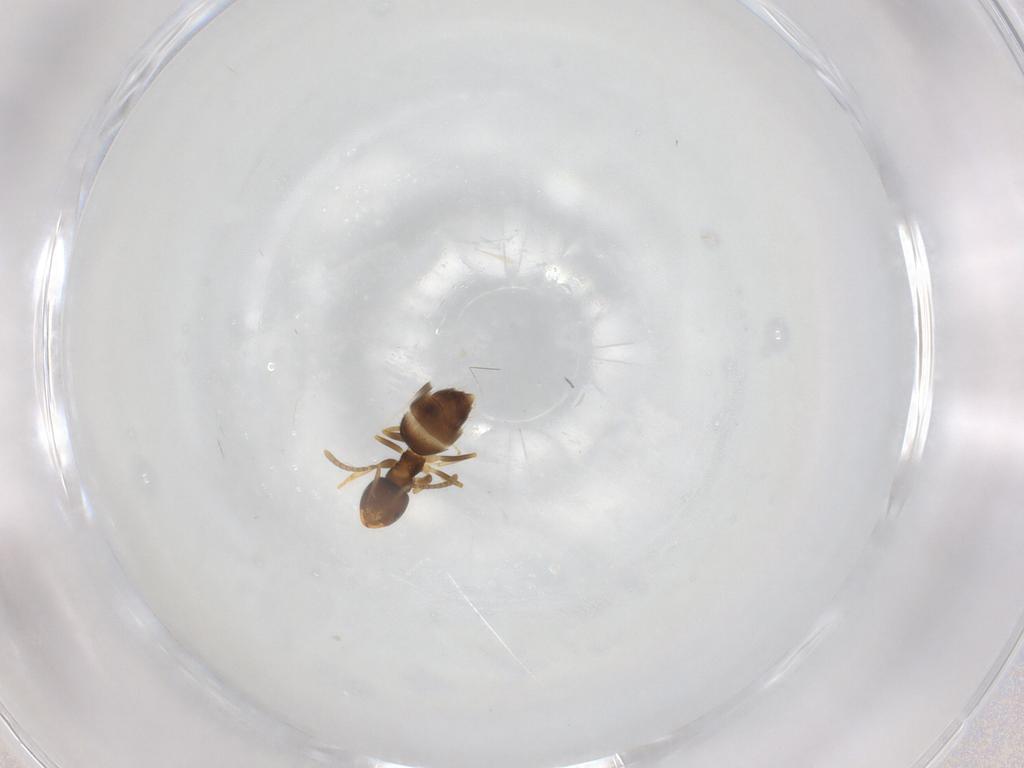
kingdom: Animalia
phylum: Arthropoda
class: Insecta
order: Hymenoptera
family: Formicidae
